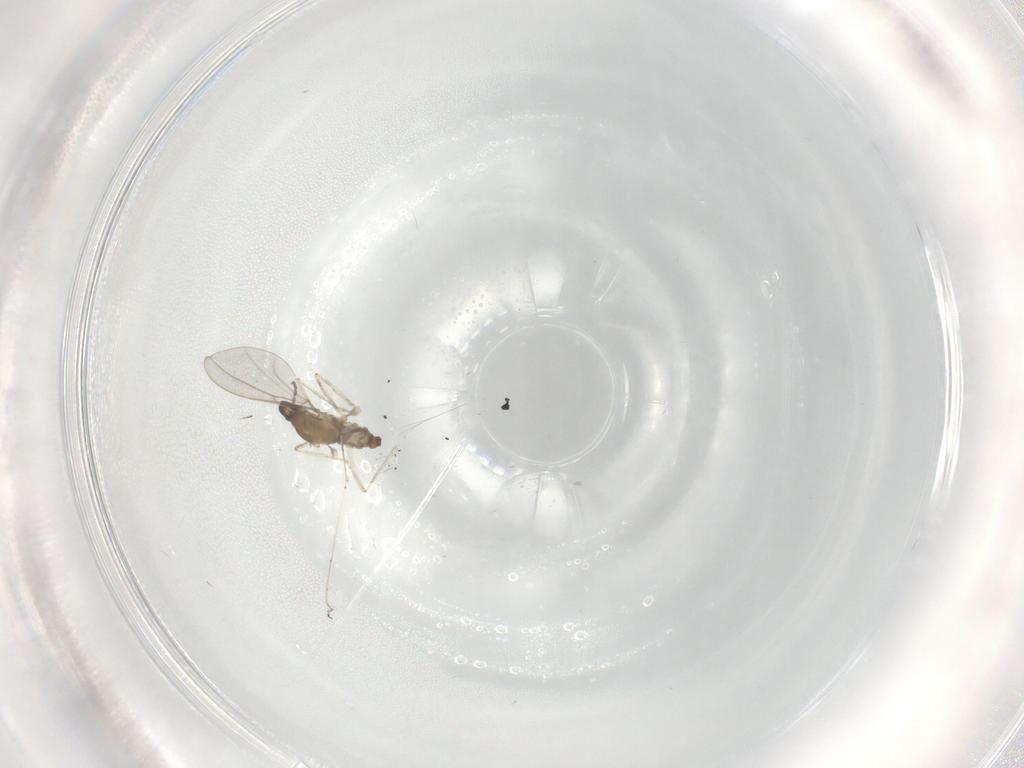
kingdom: Animalia
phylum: Arthropoda
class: Insecta
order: Diptera
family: Cecidomyiidae
